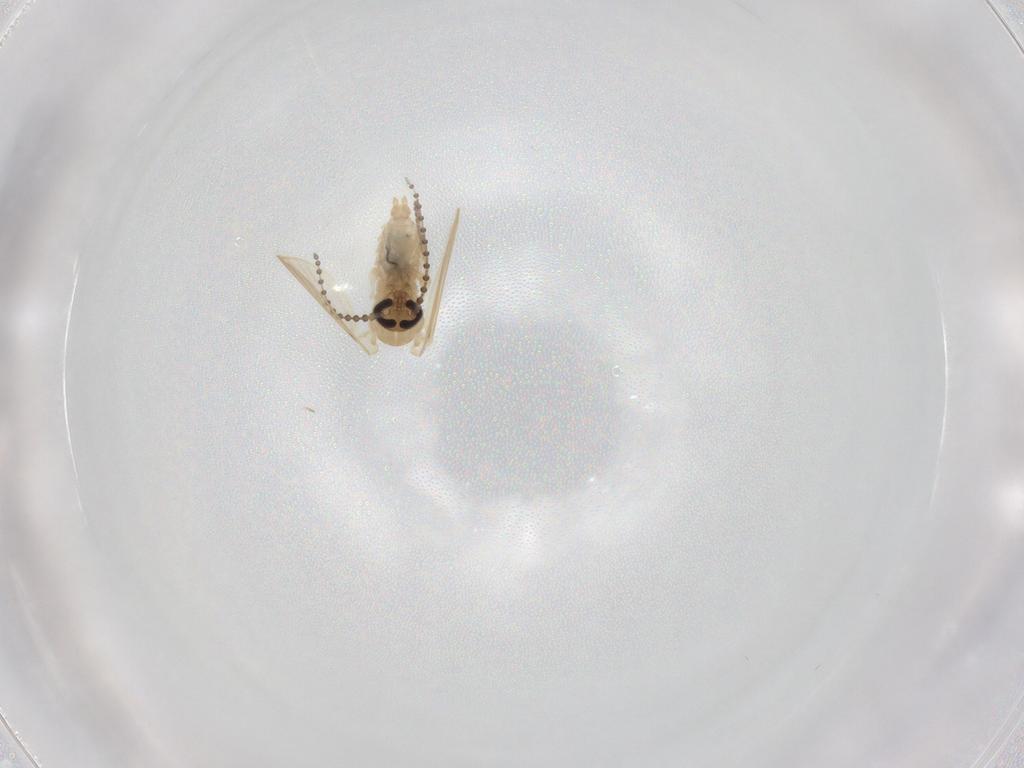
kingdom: Animalia
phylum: Arthropoda
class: Insecta
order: Diptera
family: Psychodidae
